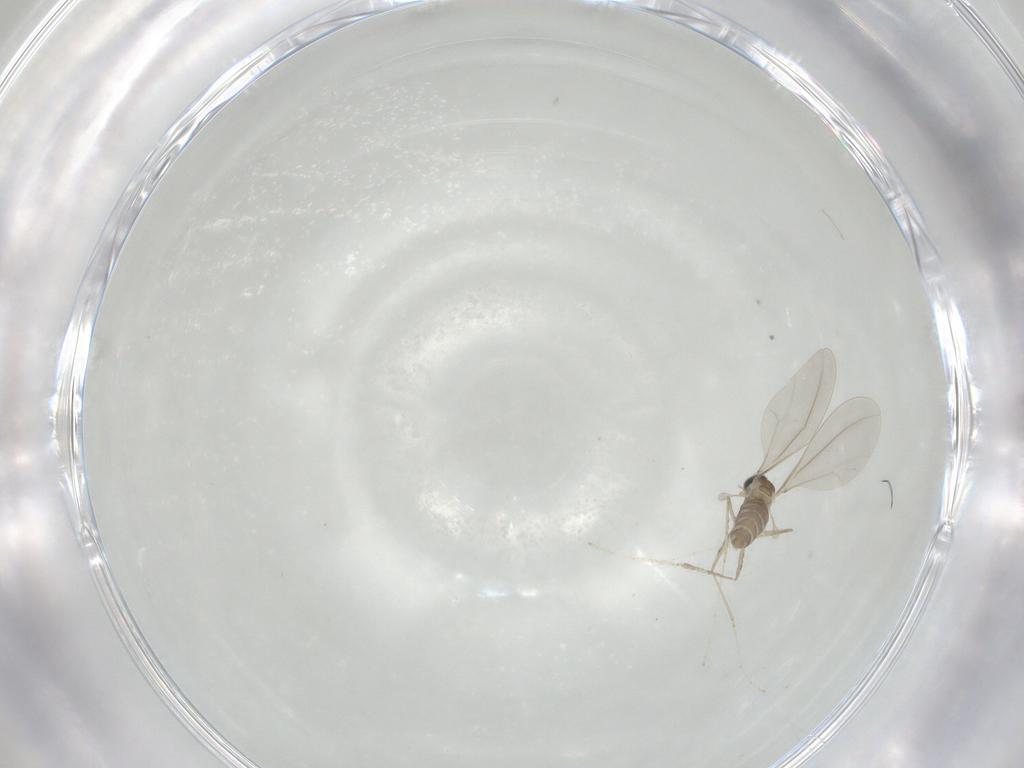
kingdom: Animalia
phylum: Arthropoda
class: Insecta
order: Diptera
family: Cecidomyiidae
